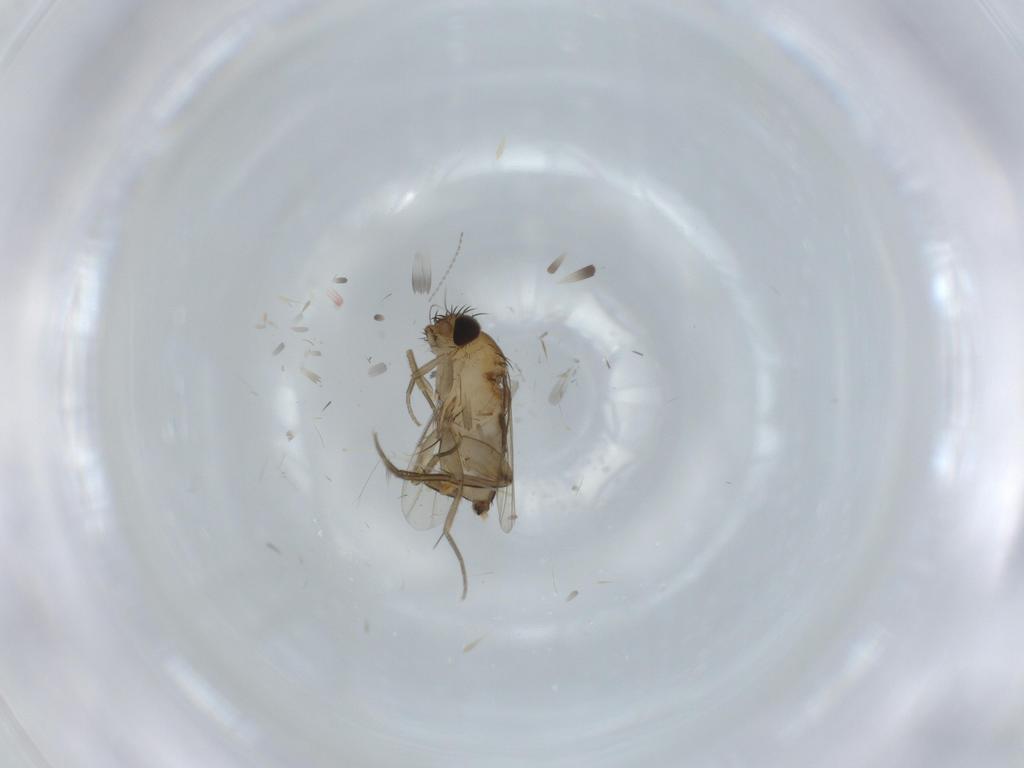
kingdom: Animalia
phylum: Arthropoda
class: Insecta
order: Diptera
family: Phoridae
